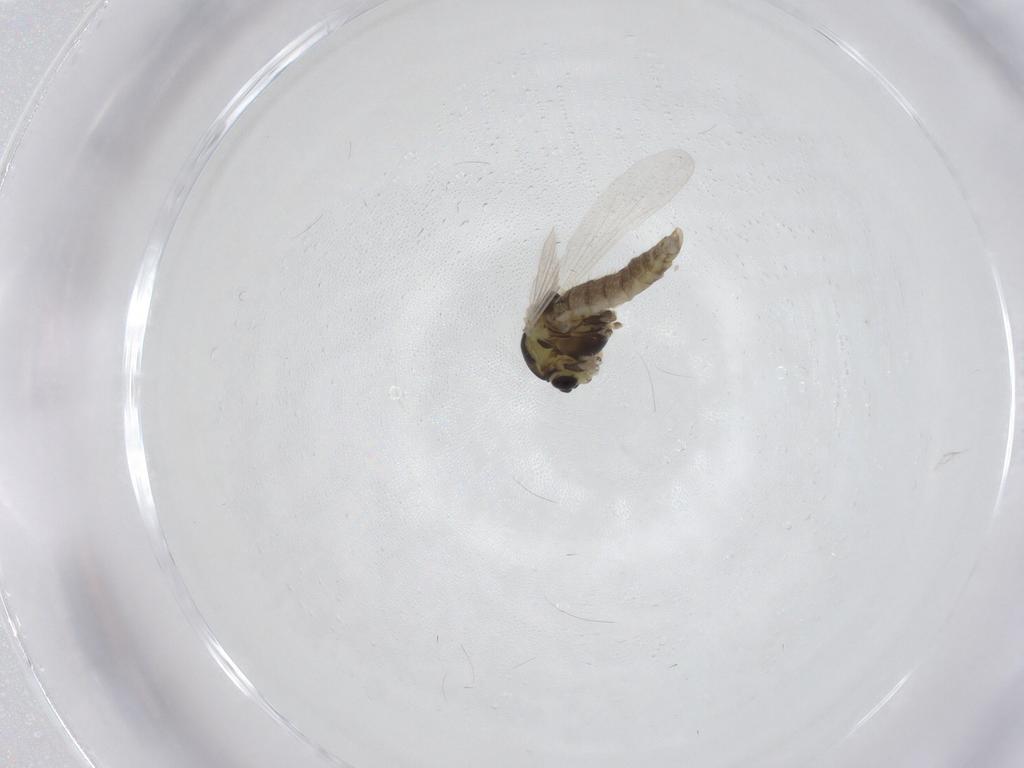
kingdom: Animalia
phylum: Arthropoda
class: Insecta
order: Diptera
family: Chironomidae
